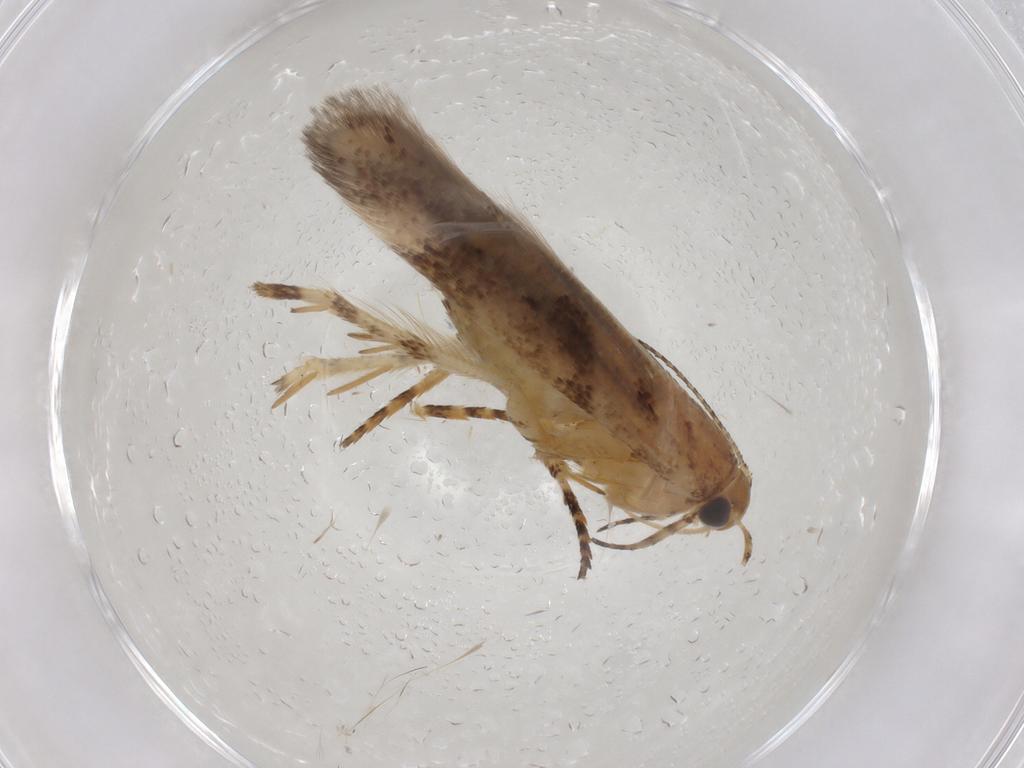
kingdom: Animalia
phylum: Arthropoda
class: Insecta
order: Lepidoptera
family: Gelechiidae
